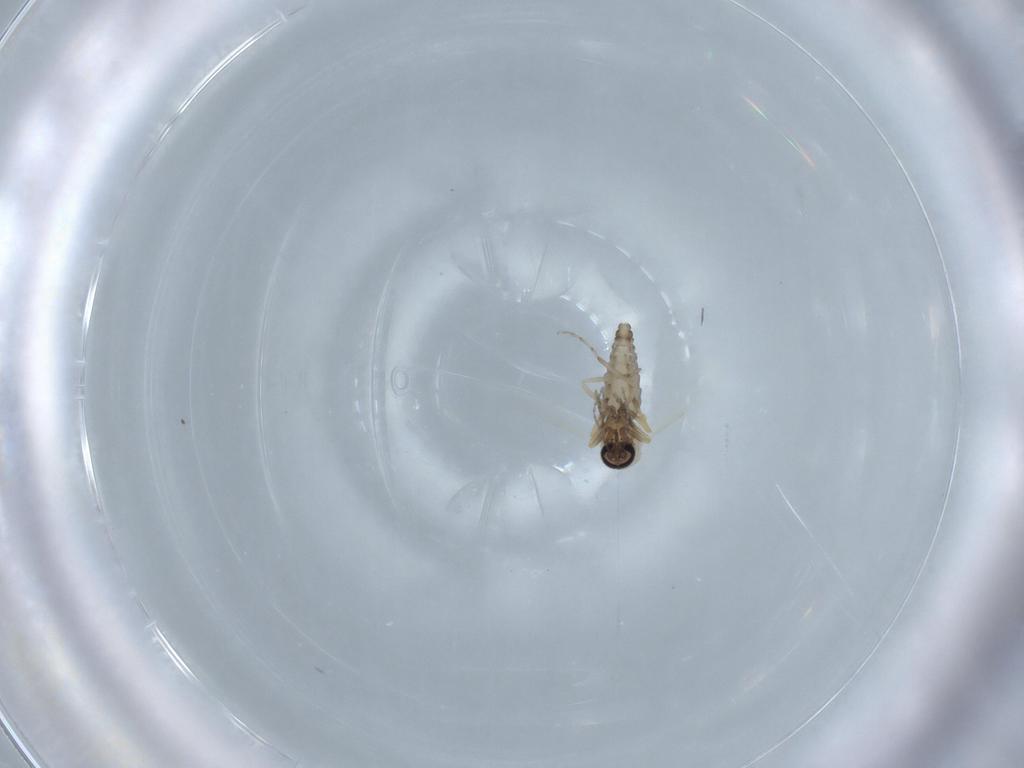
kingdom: Animalia
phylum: Arthropoda
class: Insecta
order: Diptera
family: Ceratopogonidae
